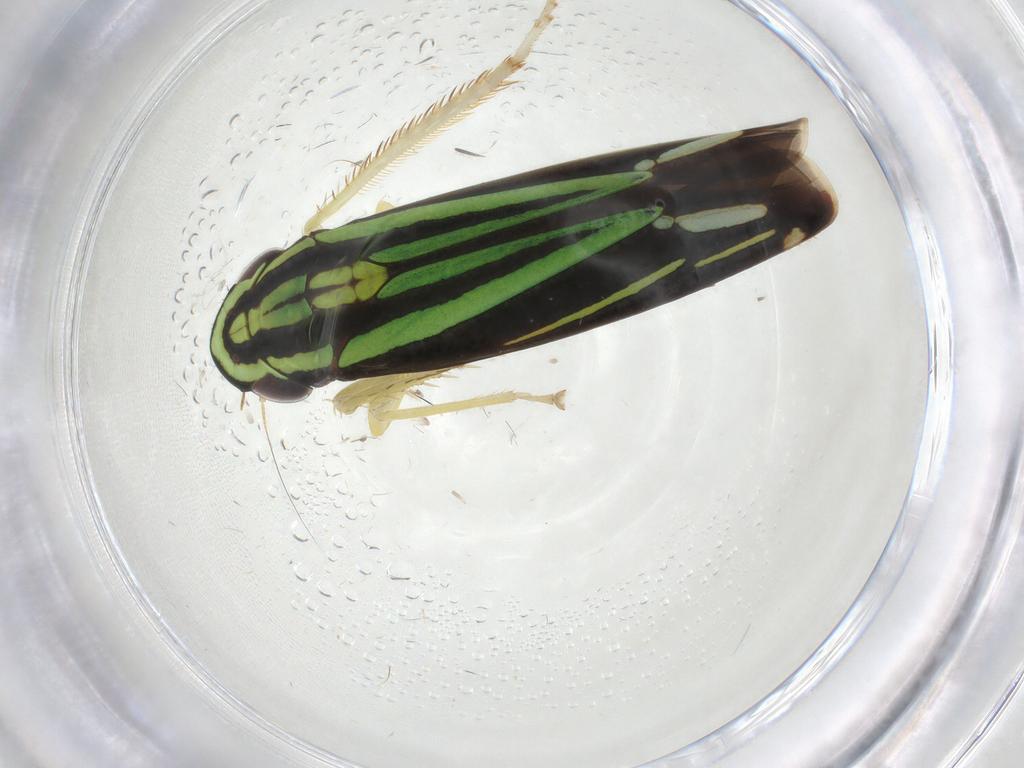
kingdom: Animalia
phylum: Arthropoda
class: Insecta
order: Hemiptera
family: Cicadellidae
